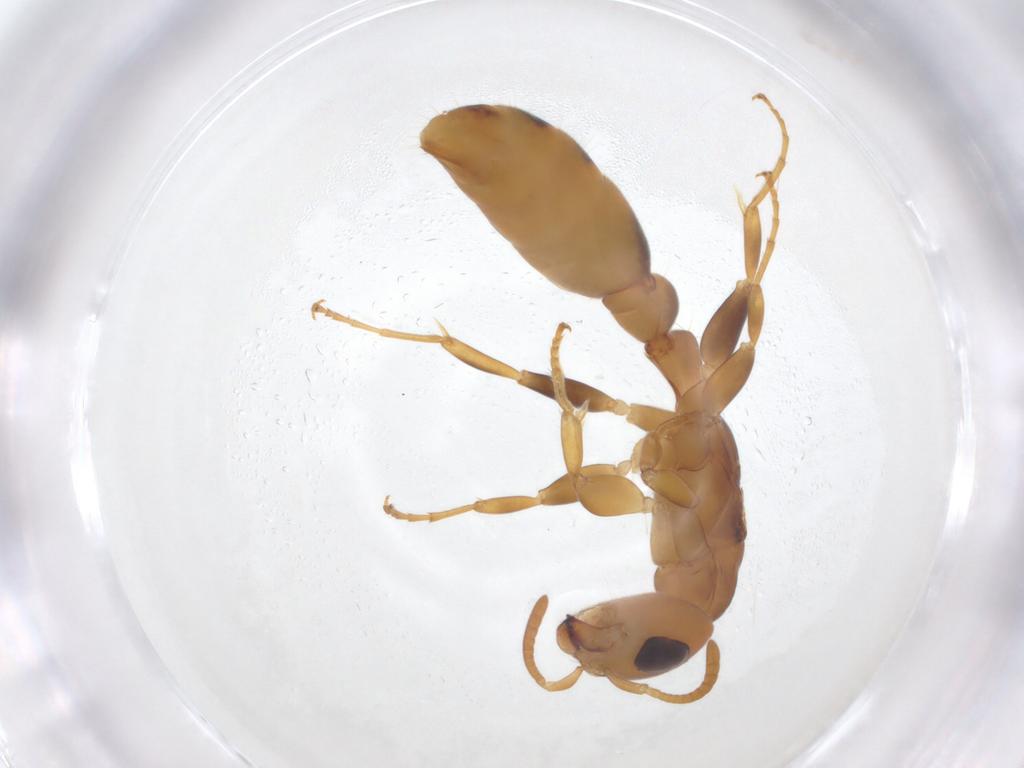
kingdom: Animalia
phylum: Arthropoda
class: Insecta
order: Hymenoptera
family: Formicidae
